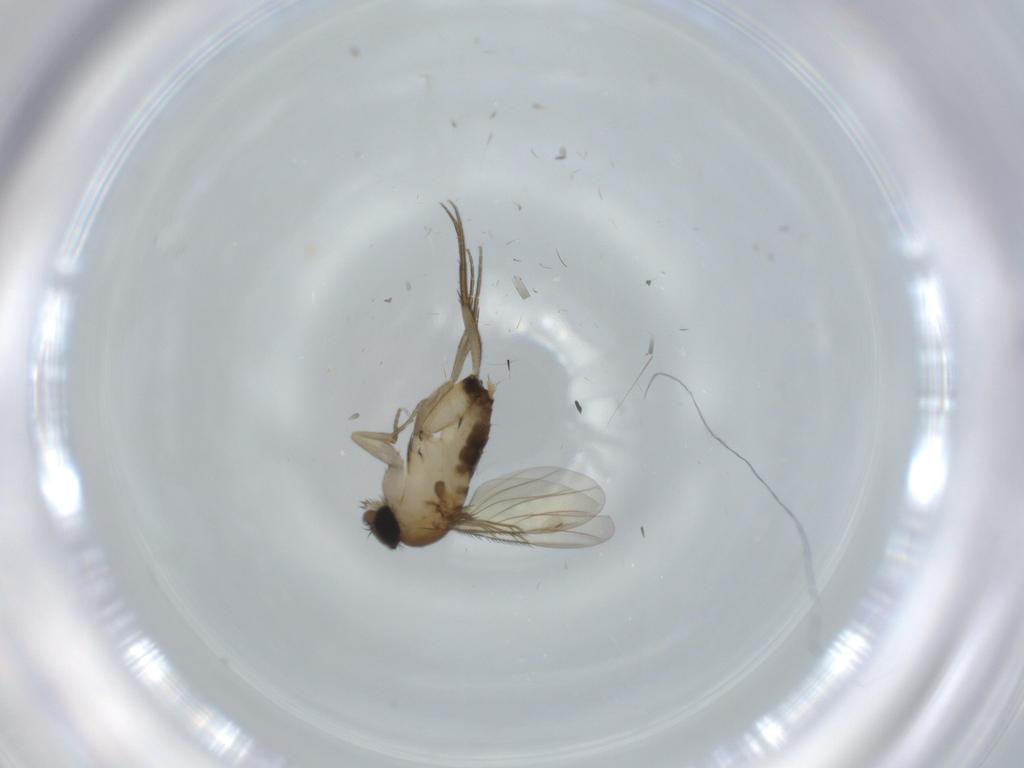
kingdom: Animalia
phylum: Arthropoda
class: Insecta
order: Diptera
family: Phoridae
